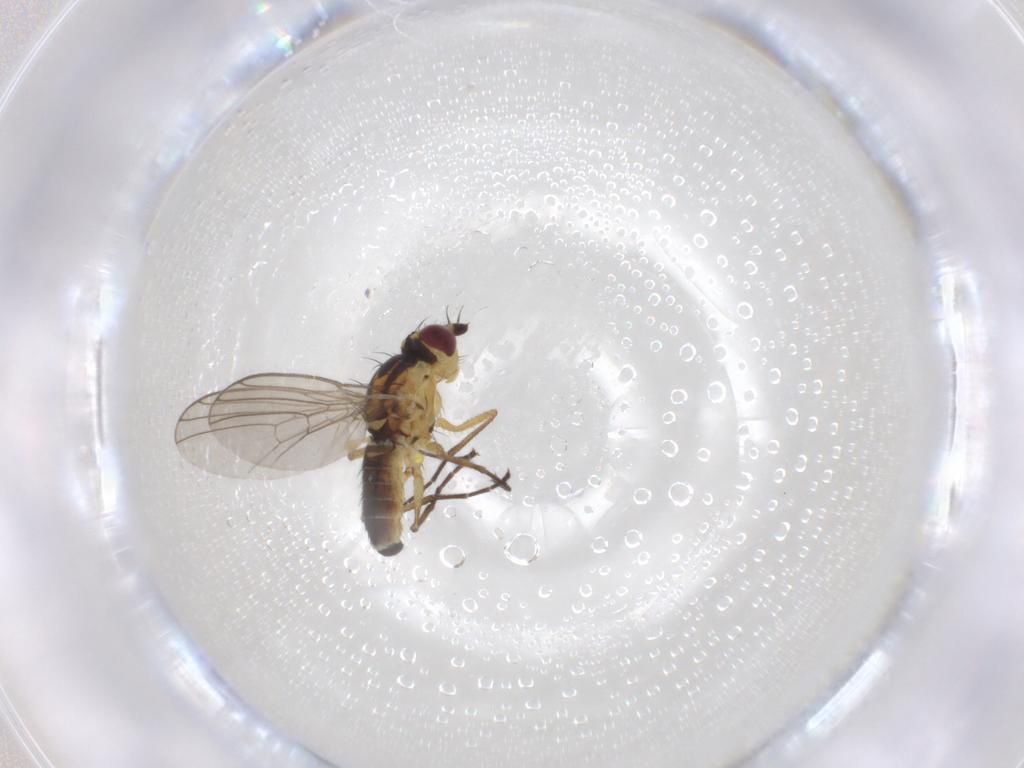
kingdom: Animalia
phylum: Arthropoda
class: Insecta
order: Diptera
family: Agromyzidae
